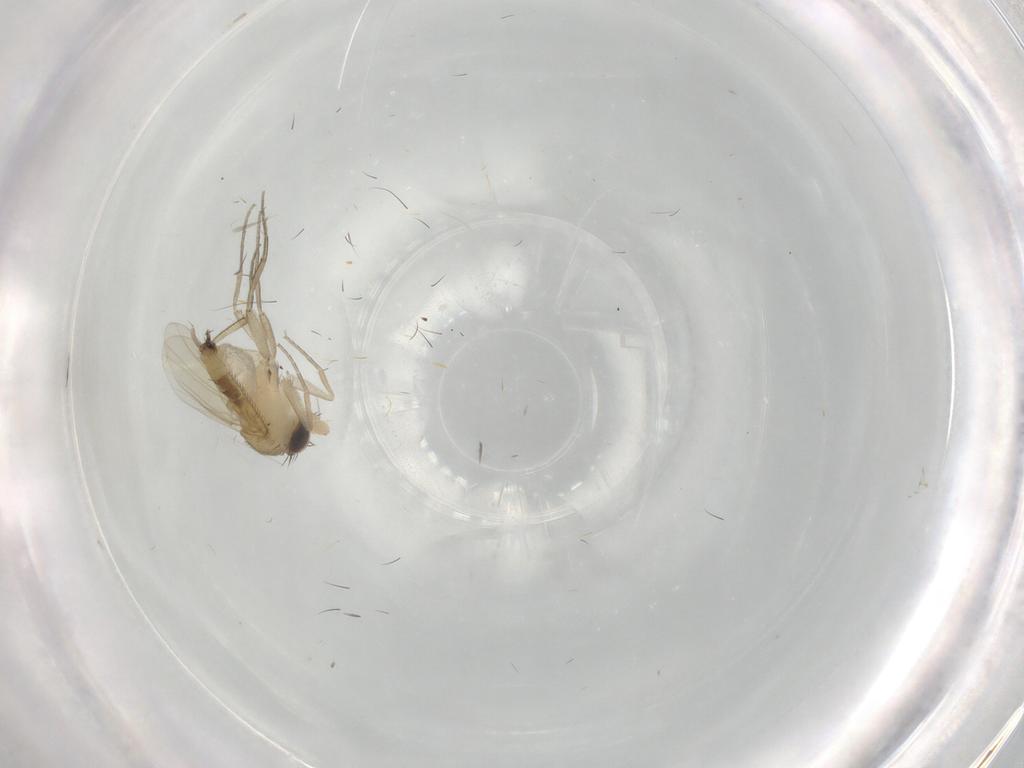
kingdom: Animalia
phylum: Arthropoda
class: Insecta
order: Diptera
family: Phoridae
